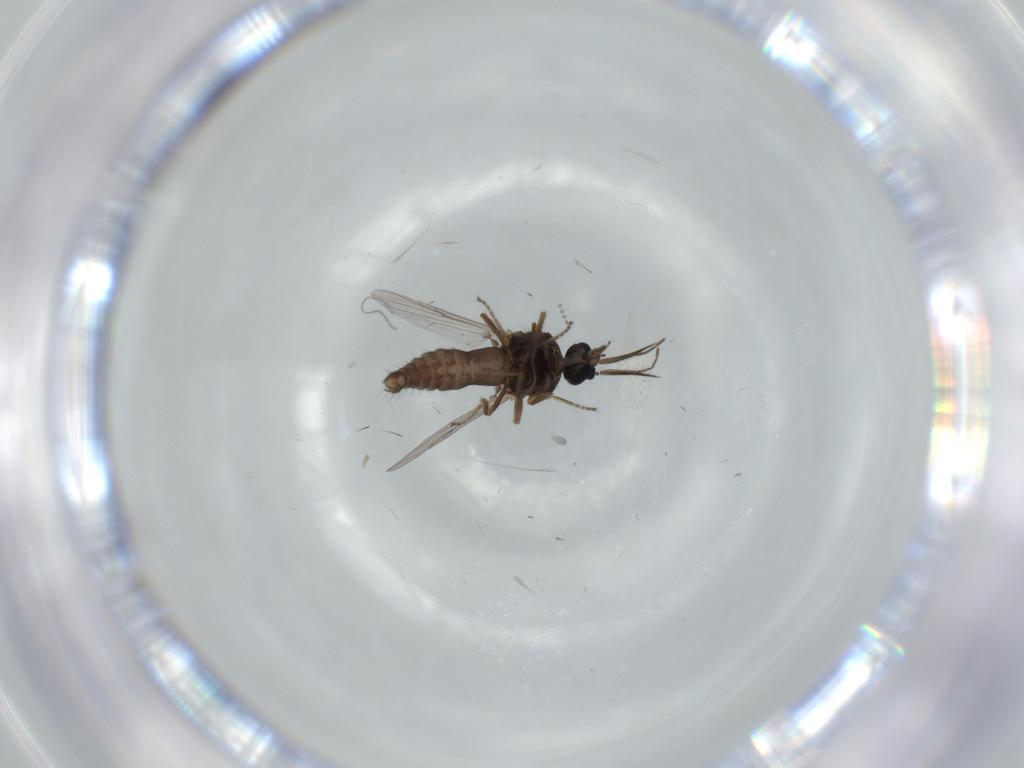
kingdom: Animalia
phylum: Arthropoda
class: Insecta
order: Diptera
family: Ceratopogonidae
